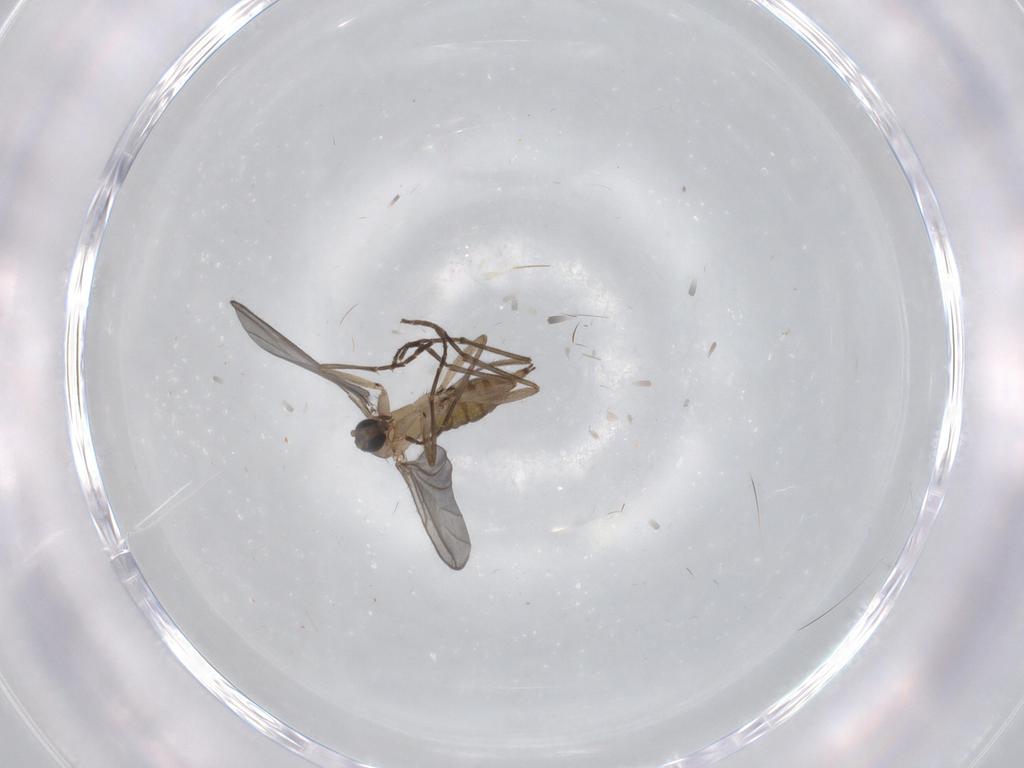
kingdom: Animalia
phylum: Arthropoda
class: Insecta
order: Diptera
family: Sciaridae
